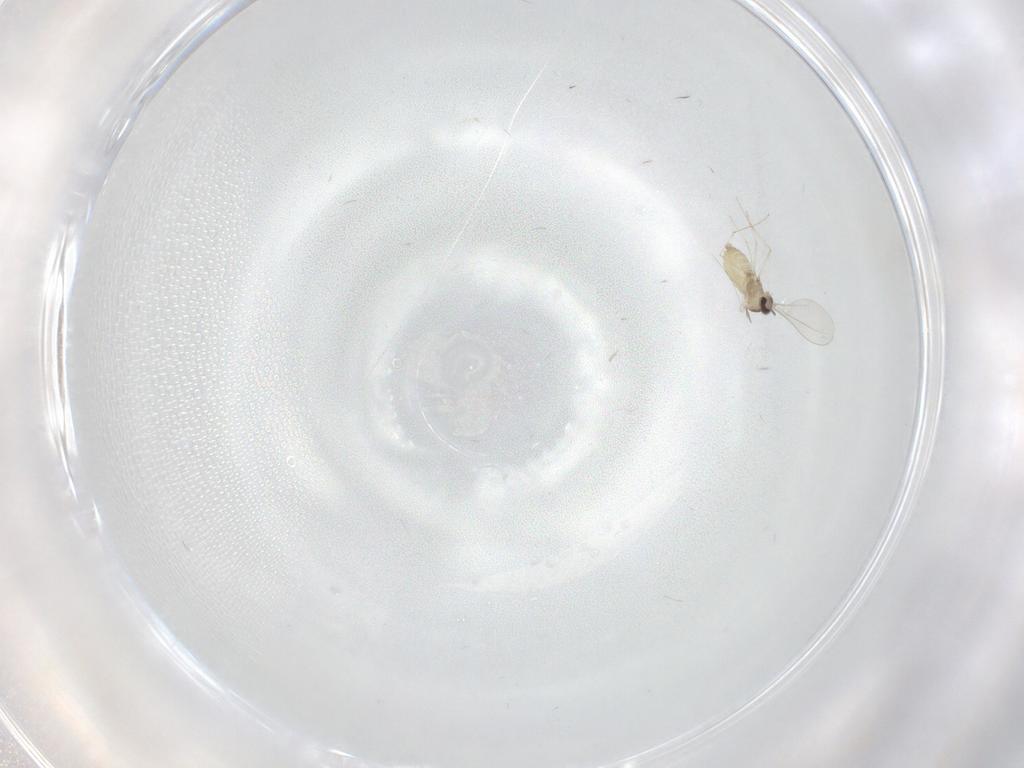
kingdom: Animalia
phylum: Arthropoda
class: Insecta
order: Diptera
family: Cecidomyiidae
